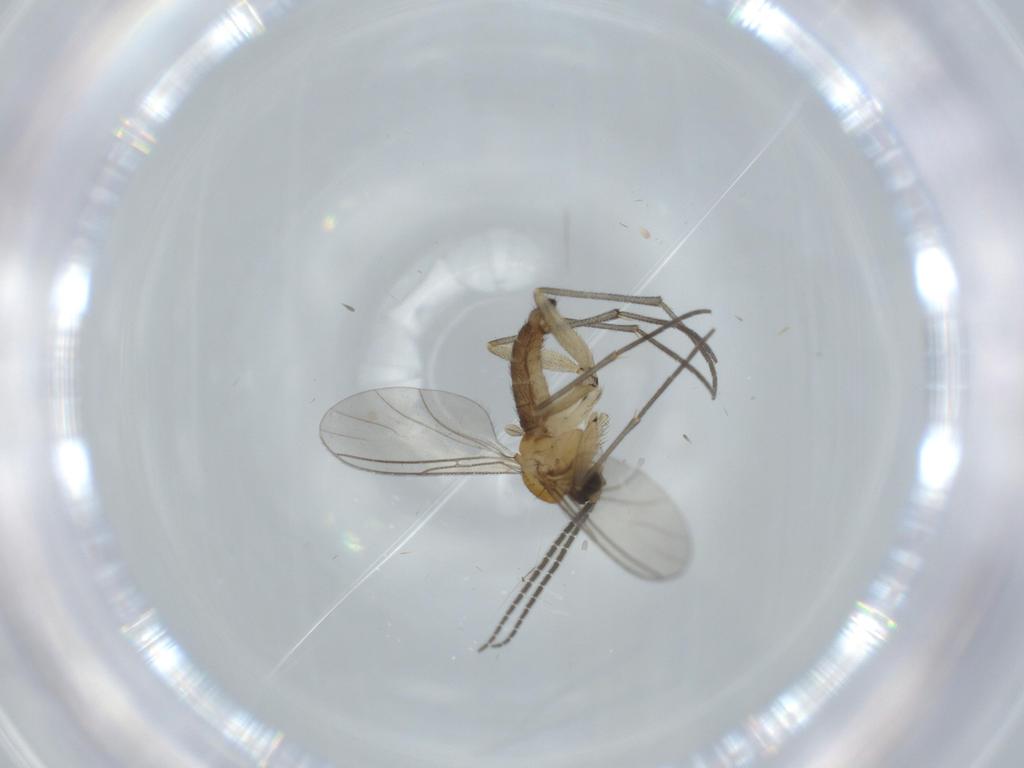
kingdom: Animalia
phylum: Arthropoda
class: Insecta
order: Diptera
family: Sciaridae
